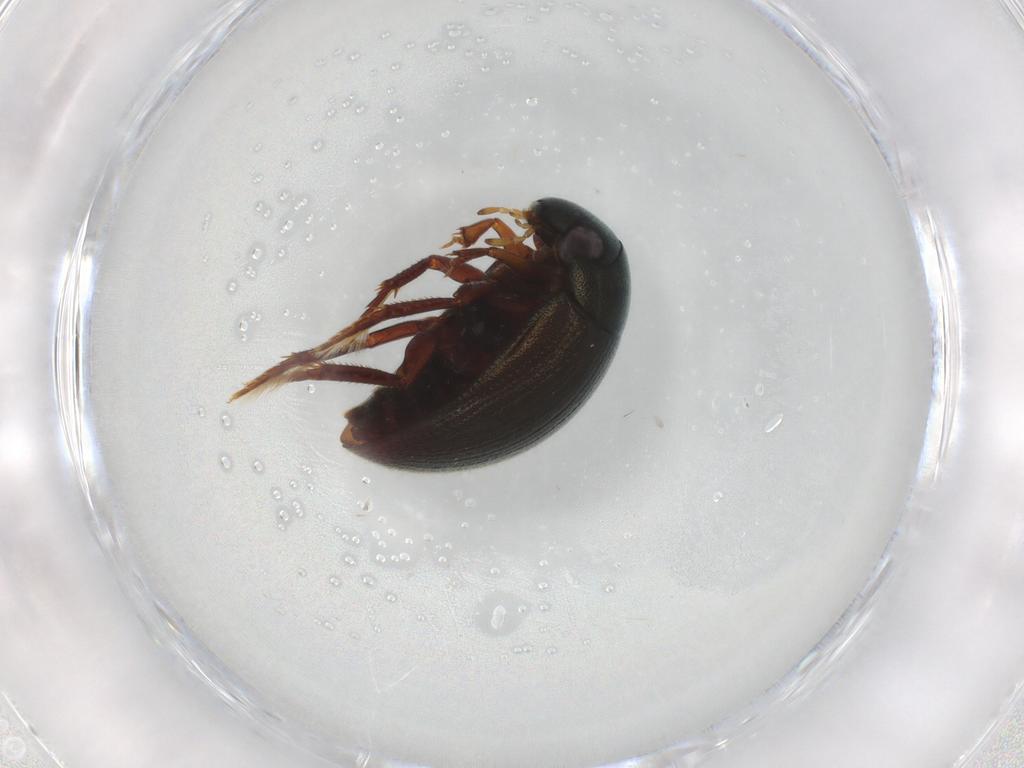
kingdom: Animalia
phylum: Arthropoda
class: Insecta
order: Coleoptera
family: Hydrophilidae
